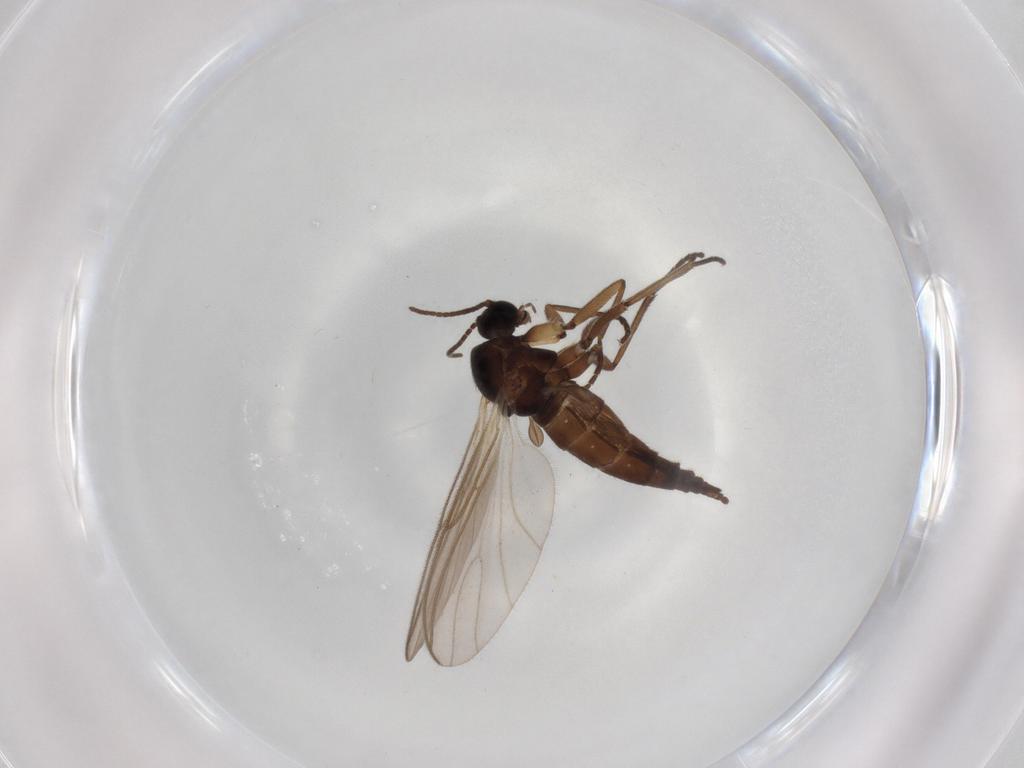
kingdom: Animalia
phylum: Arthropoda
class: Insecta
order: Diptera
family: Sciaridae
